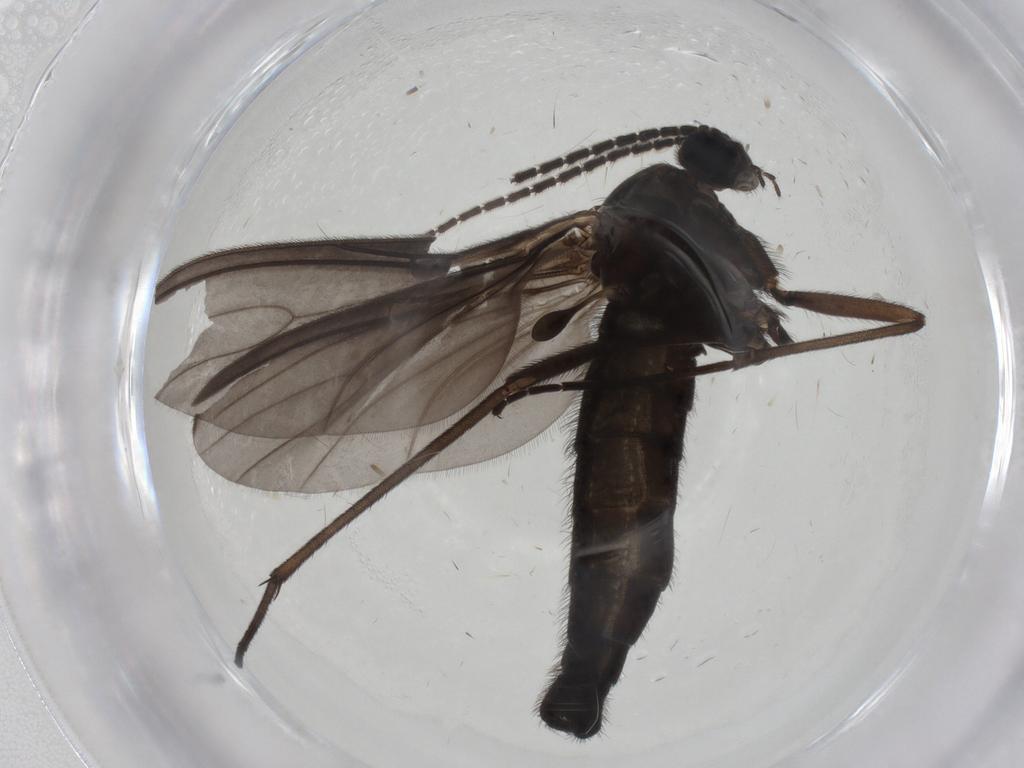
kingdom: Animalia
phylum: Arthropoda
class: Insecta
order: Diptera
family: Sciaridae
